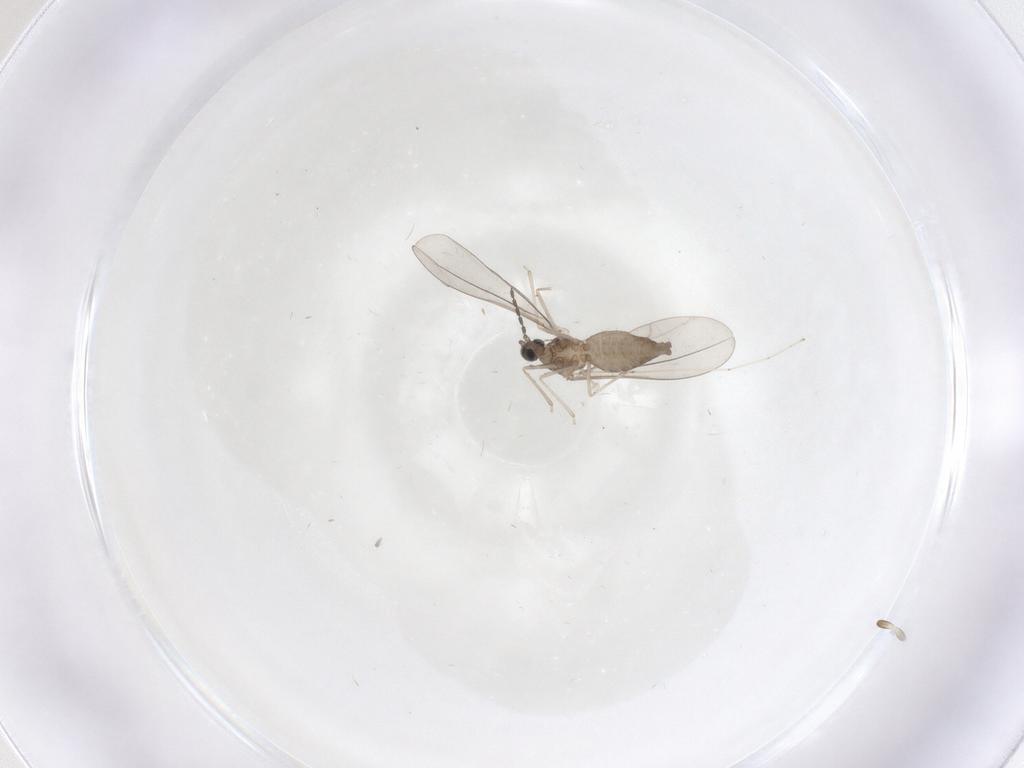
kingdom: Animalia
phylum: Arthropoda
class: Insecta
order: Diptera
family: Cecidomyiidae
